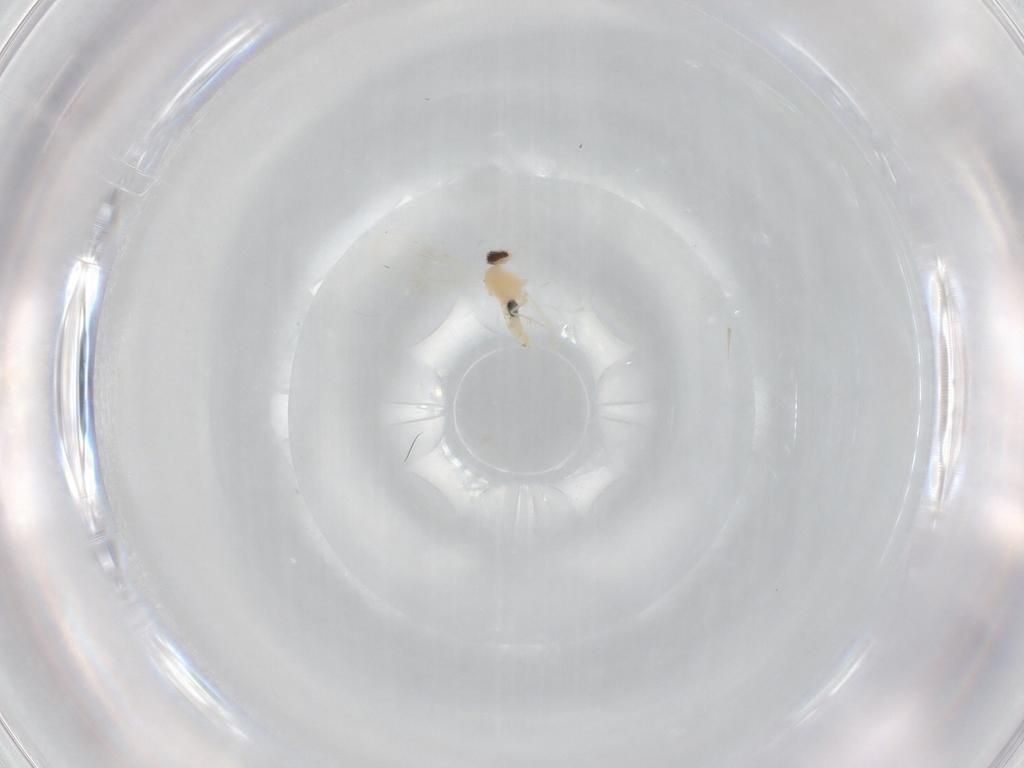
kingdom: Animalia
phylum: Arthropoda
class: Insecta
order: Diptera
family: Cecidomyiidae
